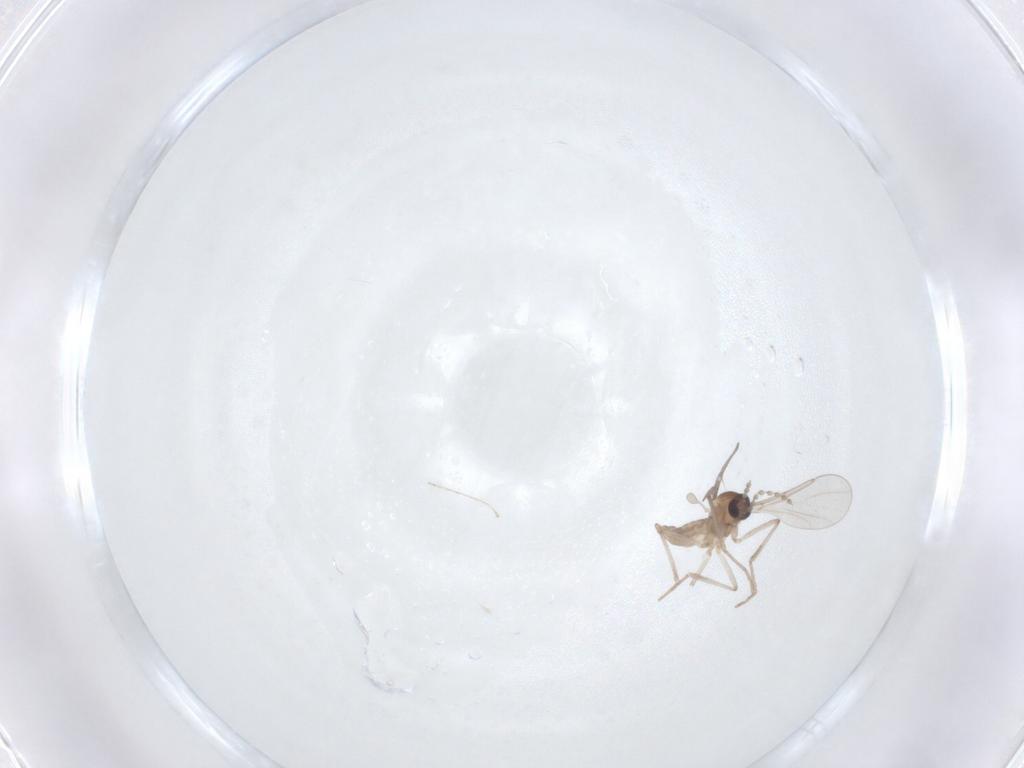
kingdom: Animalia
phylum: Arthropoda
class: Insecta
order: Diptera
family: Cecidomyiidae
